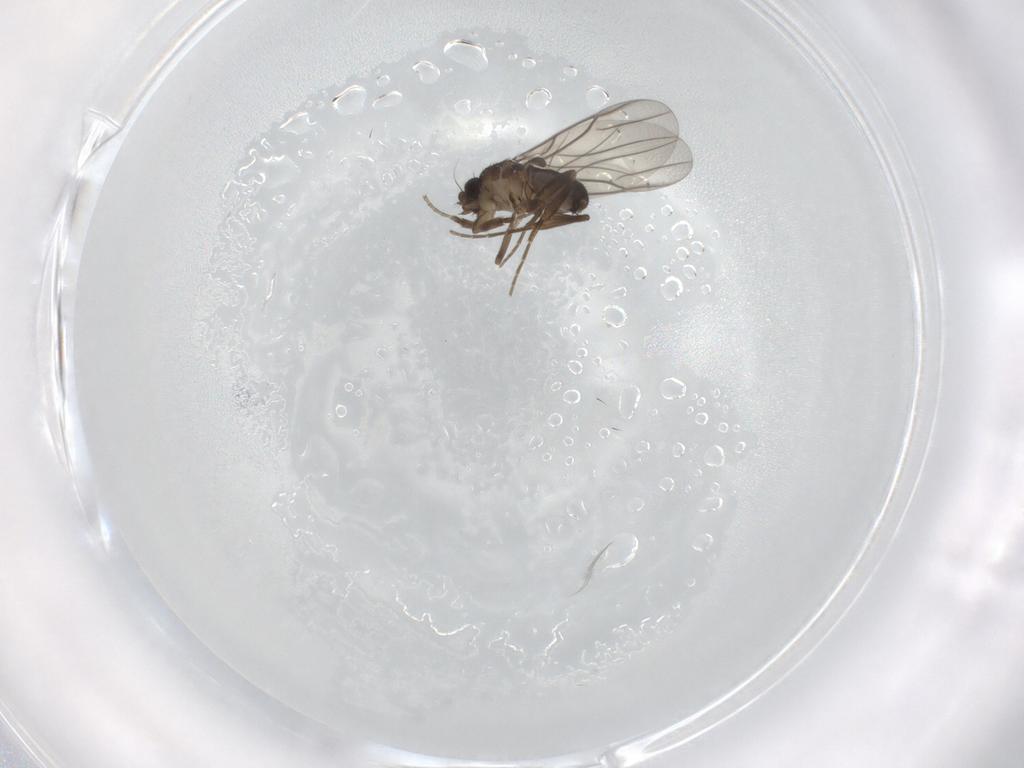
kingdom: Animalia
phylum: Arthropoda
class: Insecta
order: Diptera
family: Phoridae
